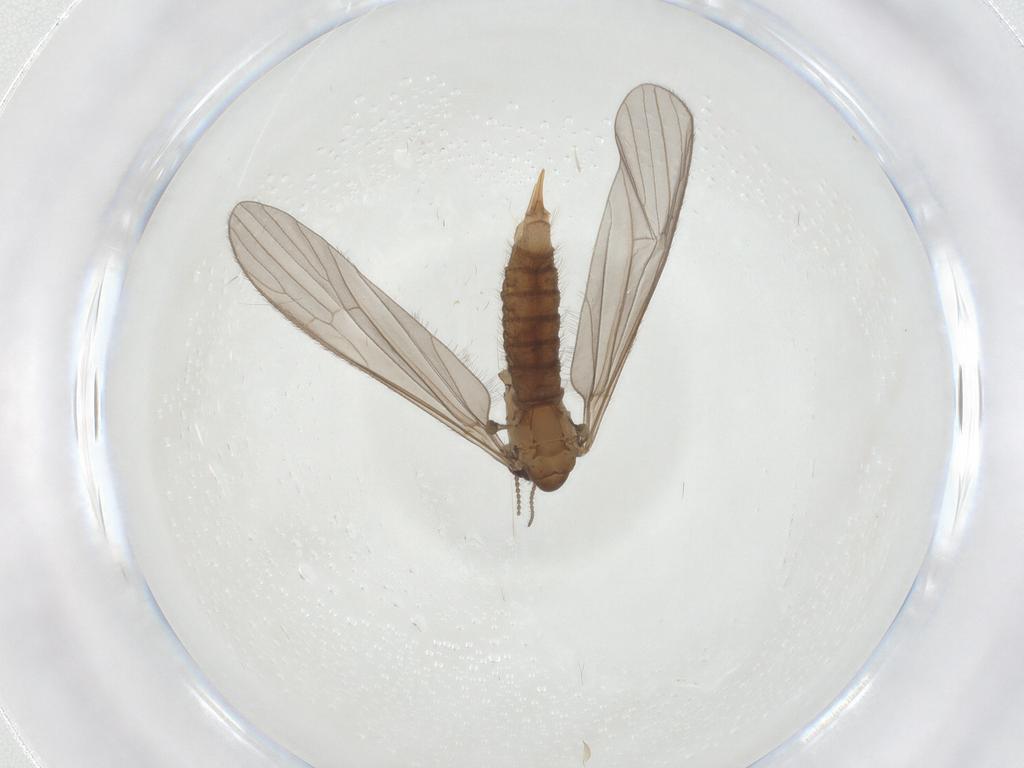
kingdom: Animalia
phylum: Arthropoda
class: Insecta
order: Diptera
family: Limoniidae
